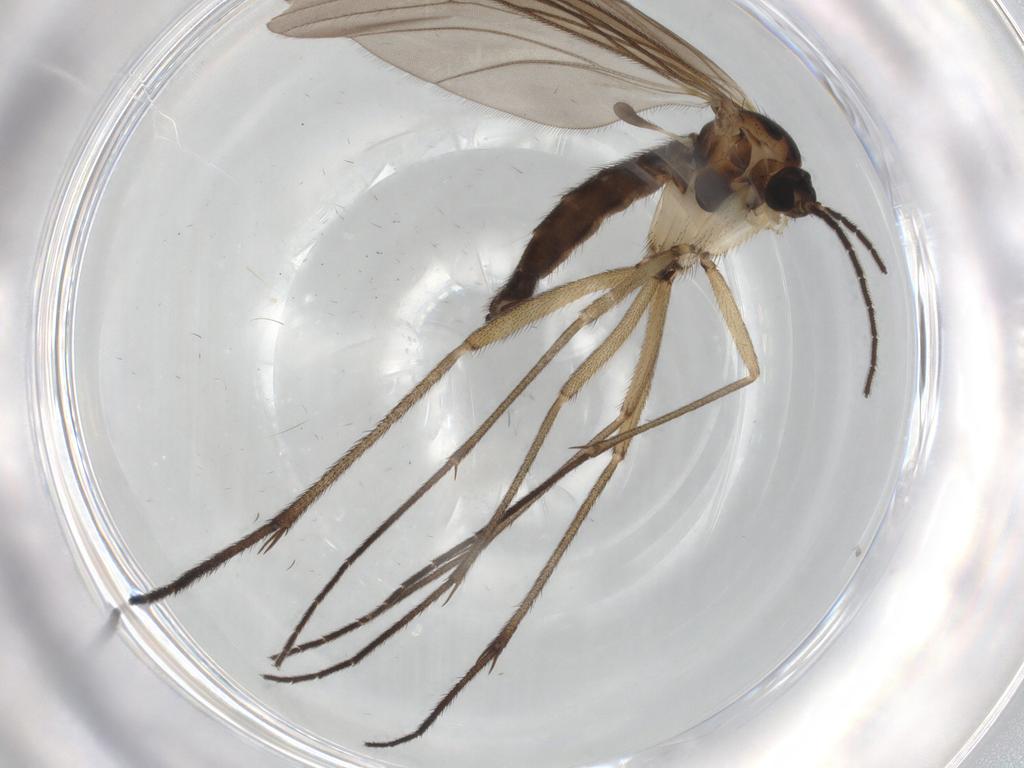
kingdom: Animalia
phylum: Arthropoda
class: Insecta
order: Diptera
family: Sciaridae
